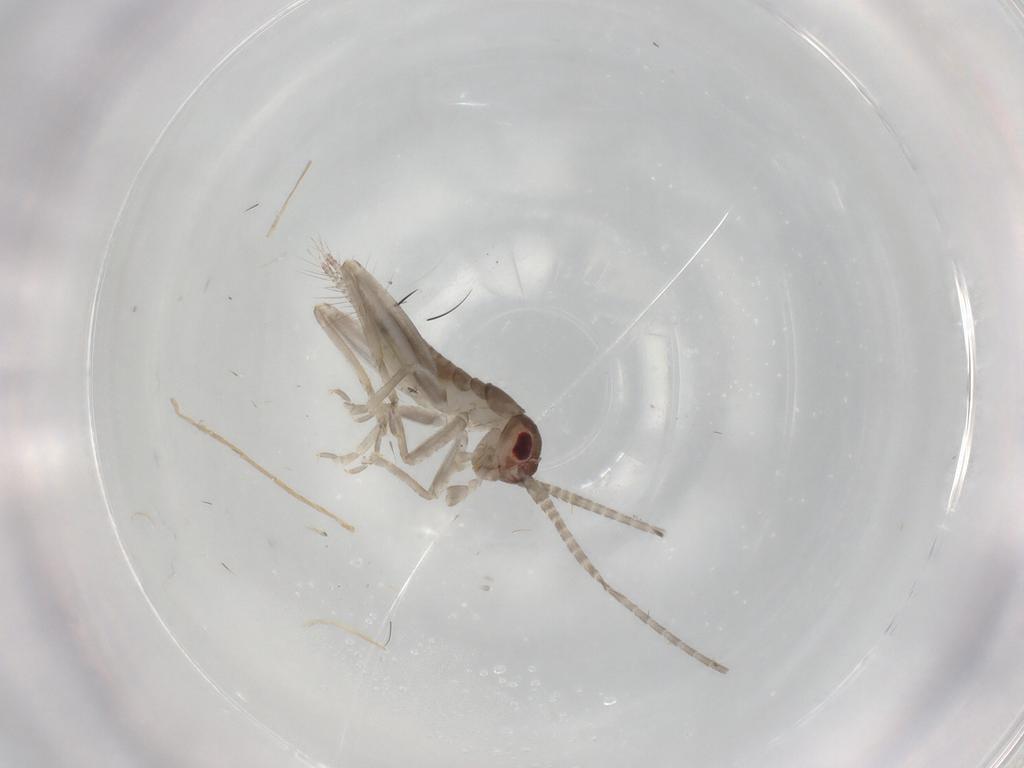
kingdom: Animalia
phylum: Arthropoda
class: Insecta
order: Orthoptera
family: Gryllidae
